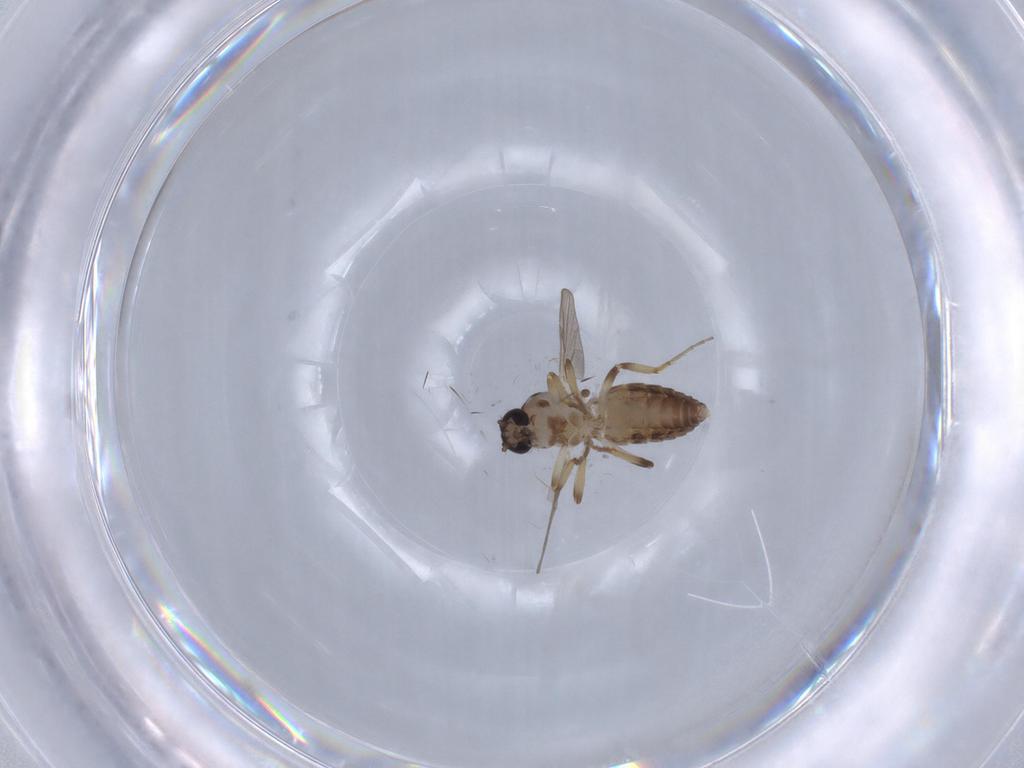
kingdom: Animalia
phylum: Arthropoda
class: Insecta
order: Diptera
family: Ceratopogonidae
